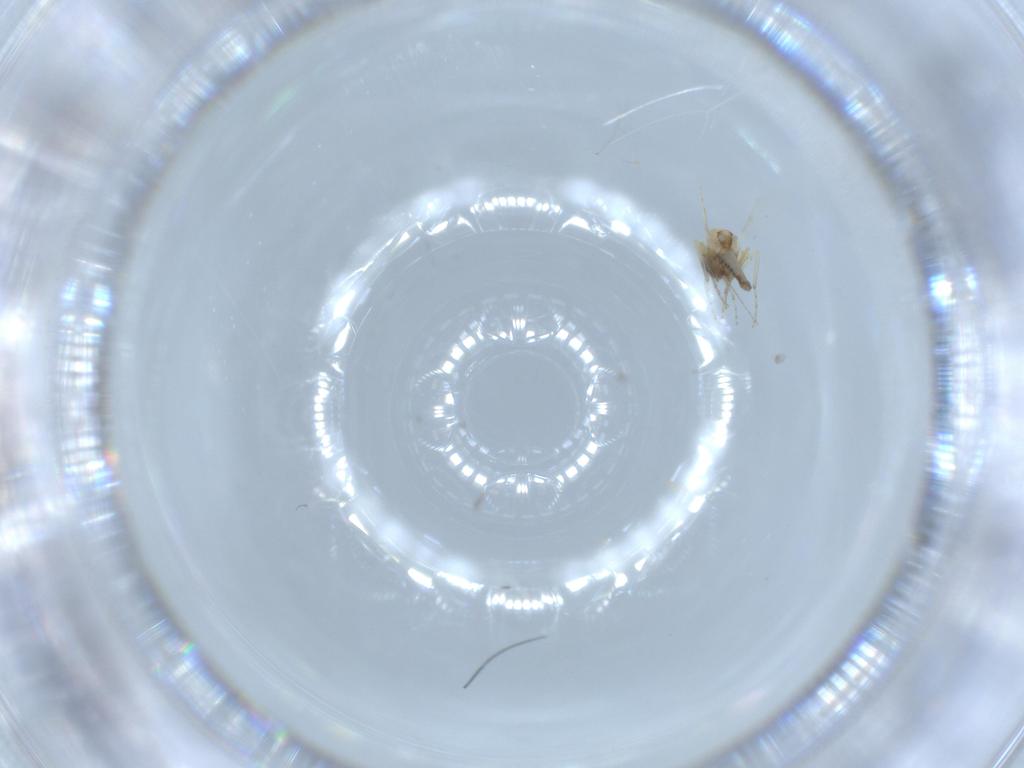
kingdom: Animalia
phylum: Arthropoda
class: Insecta
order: Diptera
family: Cecidomyiidae
